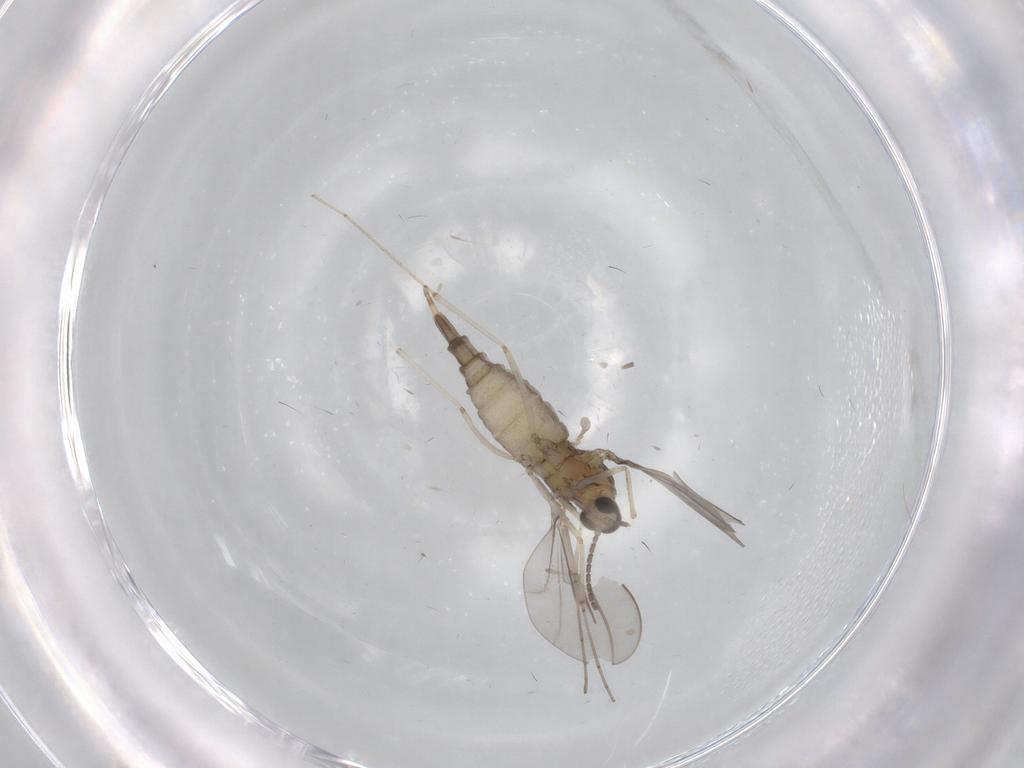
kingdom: Animalia
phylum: Arthropoda
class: Insecta
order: Diptera
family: Cecidomyiidae
